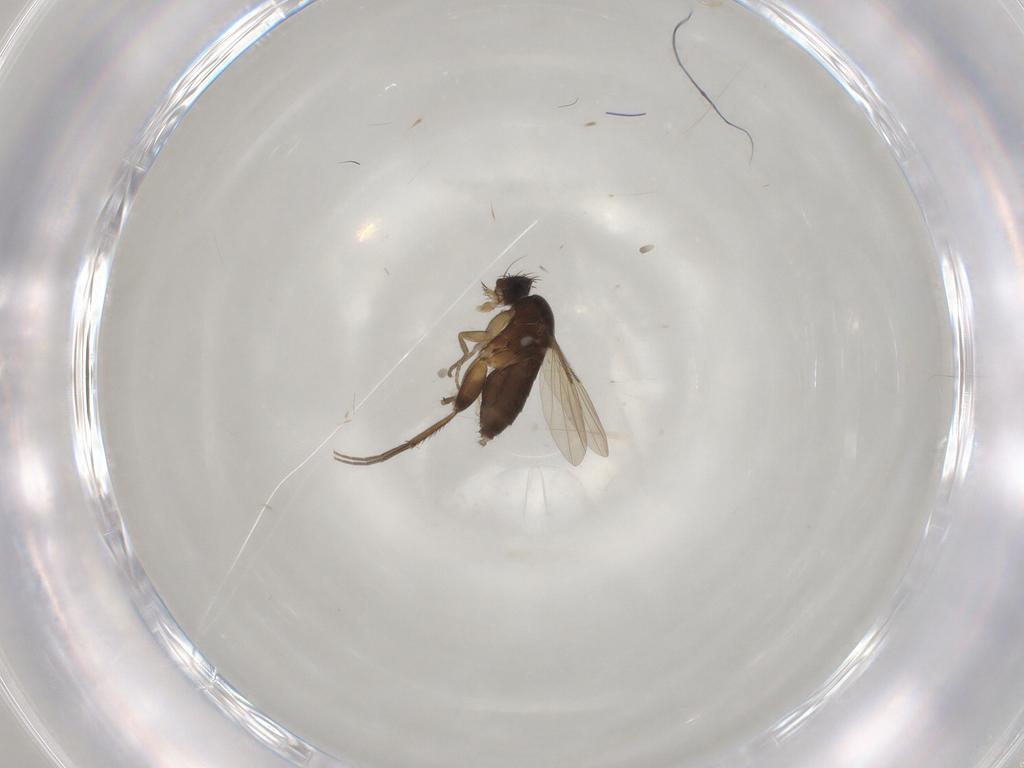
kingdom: Animalia
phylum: Arthropoda
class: Insecta
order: Diptera
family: Phoridae
